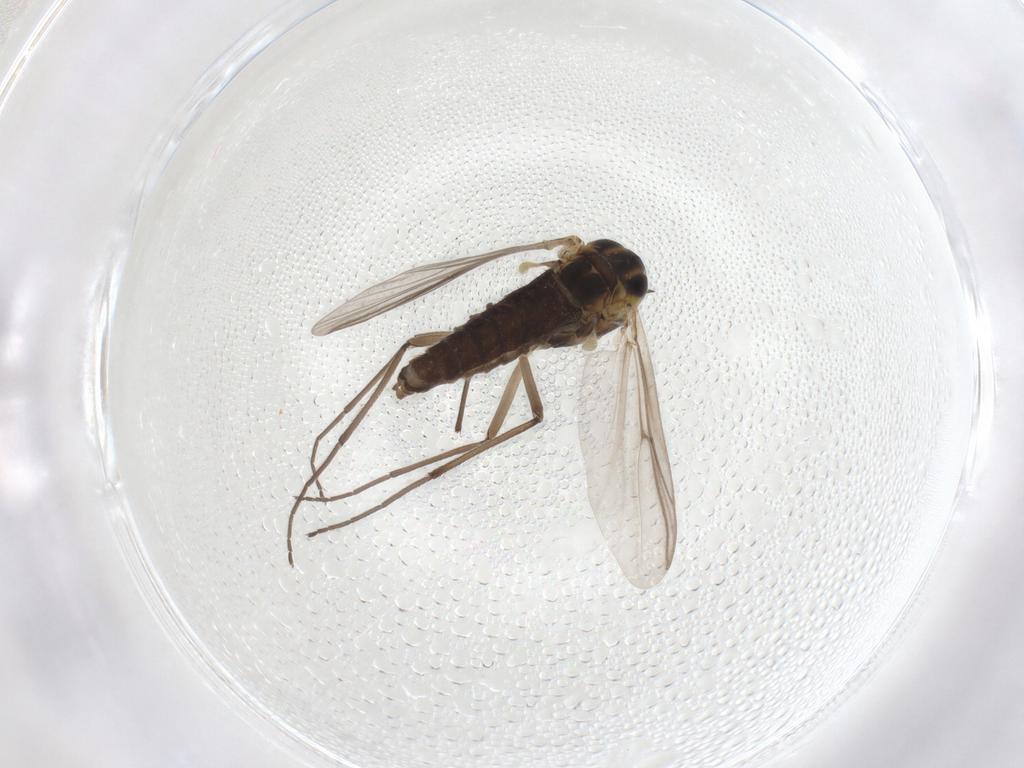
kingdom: Animalia
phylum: Arthropoda
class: Insecta
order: Diptera
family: Chironomidae
